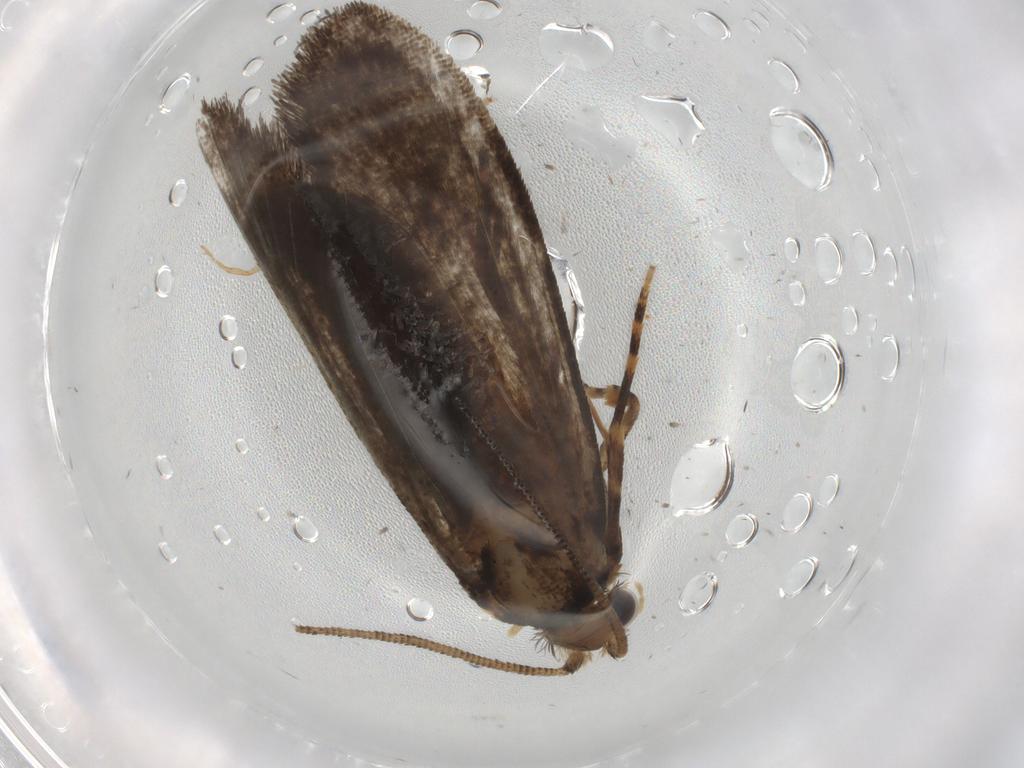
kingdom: Animalia
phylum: Arthropoda
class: Insecta
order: Lepidoptera
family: Tineidae
